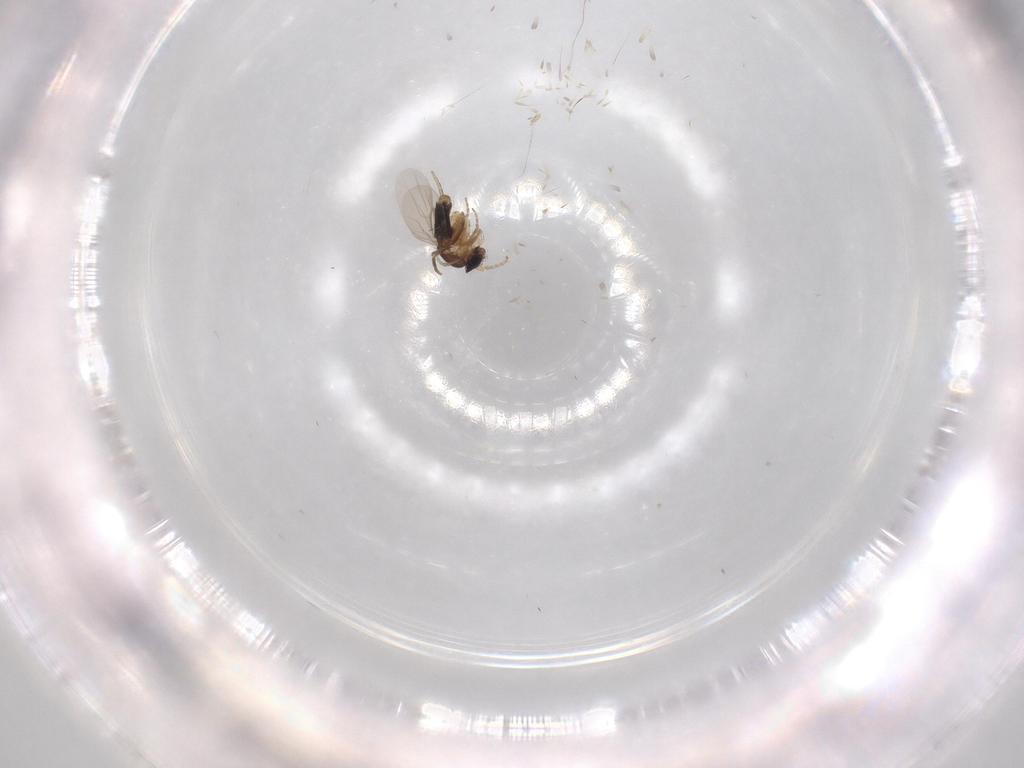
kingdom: Animalia
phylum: Arthropoda
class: Insecta
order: Diptera
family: Phoridae
